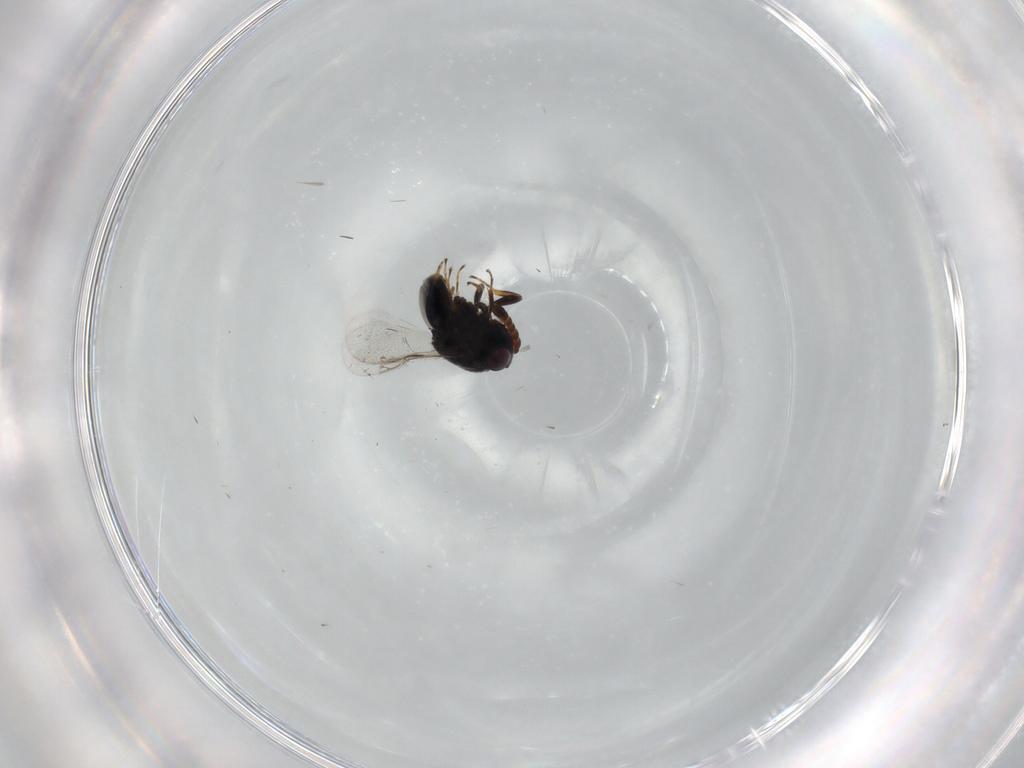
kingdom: Animalia
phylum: Arthropoda
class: Insecta
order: Hymenoptera
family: Encyrtidae
